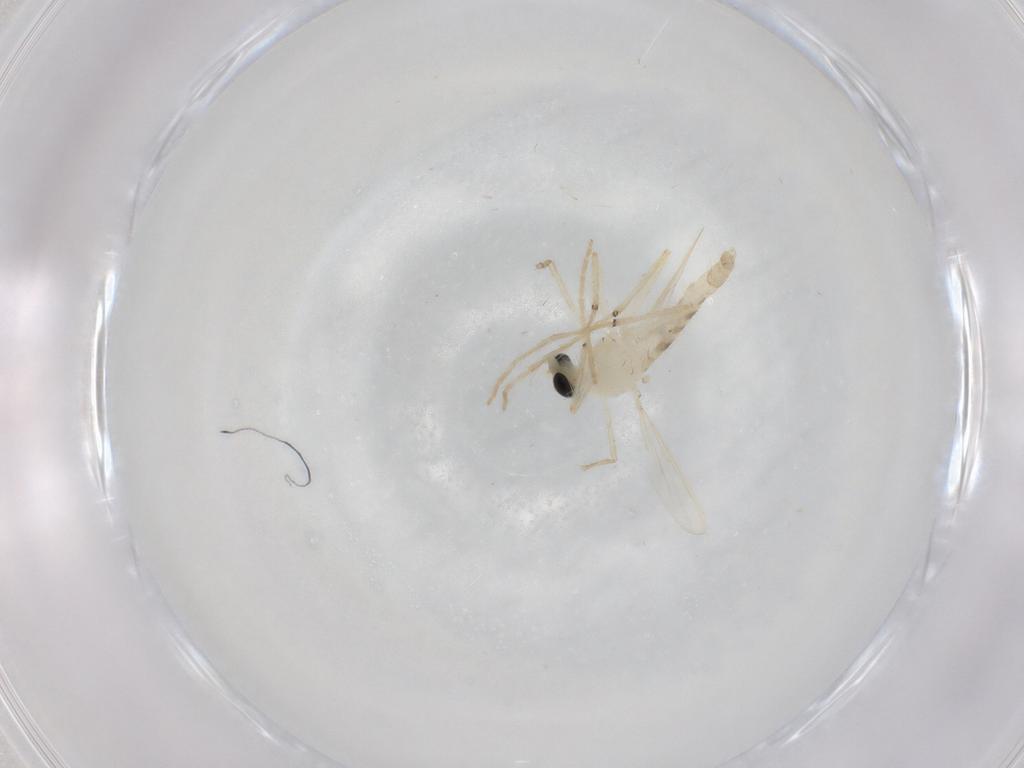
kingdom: Animalia
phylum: Arthropoda
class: Insecta
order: Diptera
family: Chironomidae
